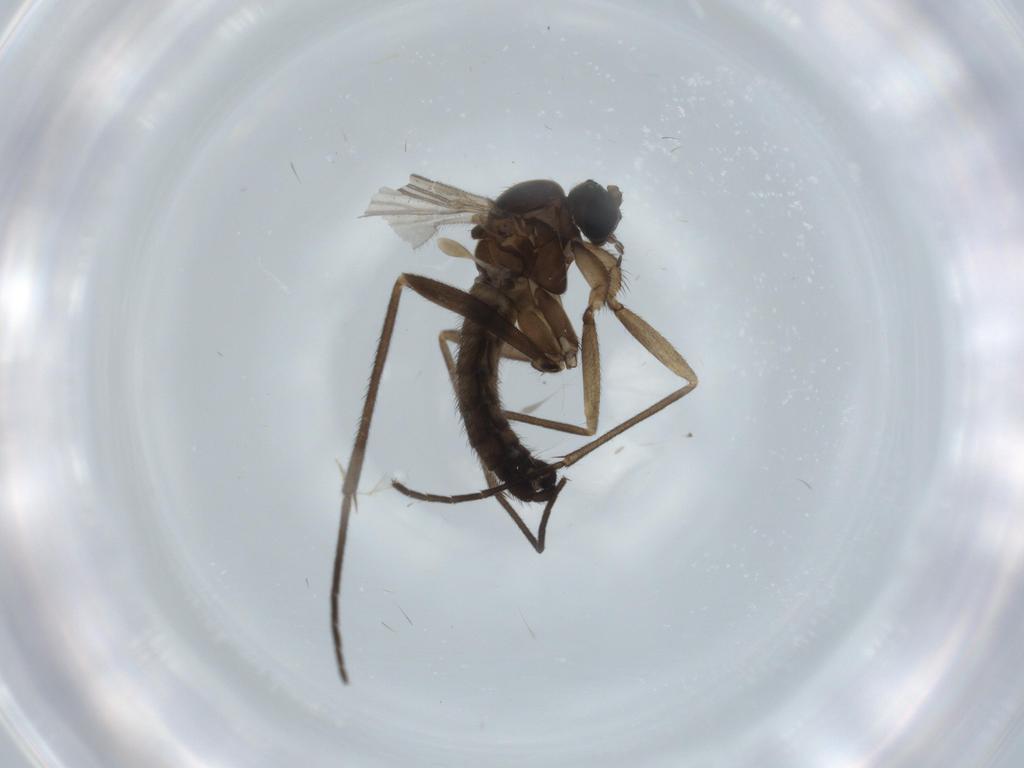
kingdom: Animalia
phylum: Arthropoda
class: Insecta
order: Diptera
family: Sciaridae
